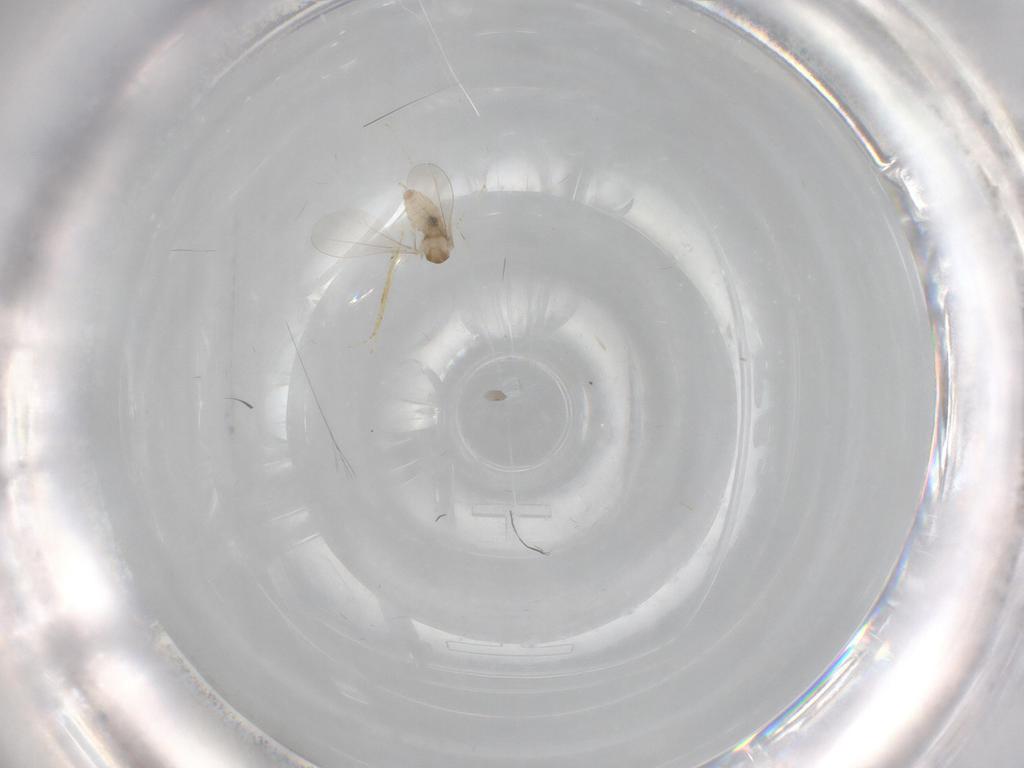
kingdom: Animalia
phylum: Arthropoda
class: Insecta
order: Diptera
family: Cecidomyiidae
